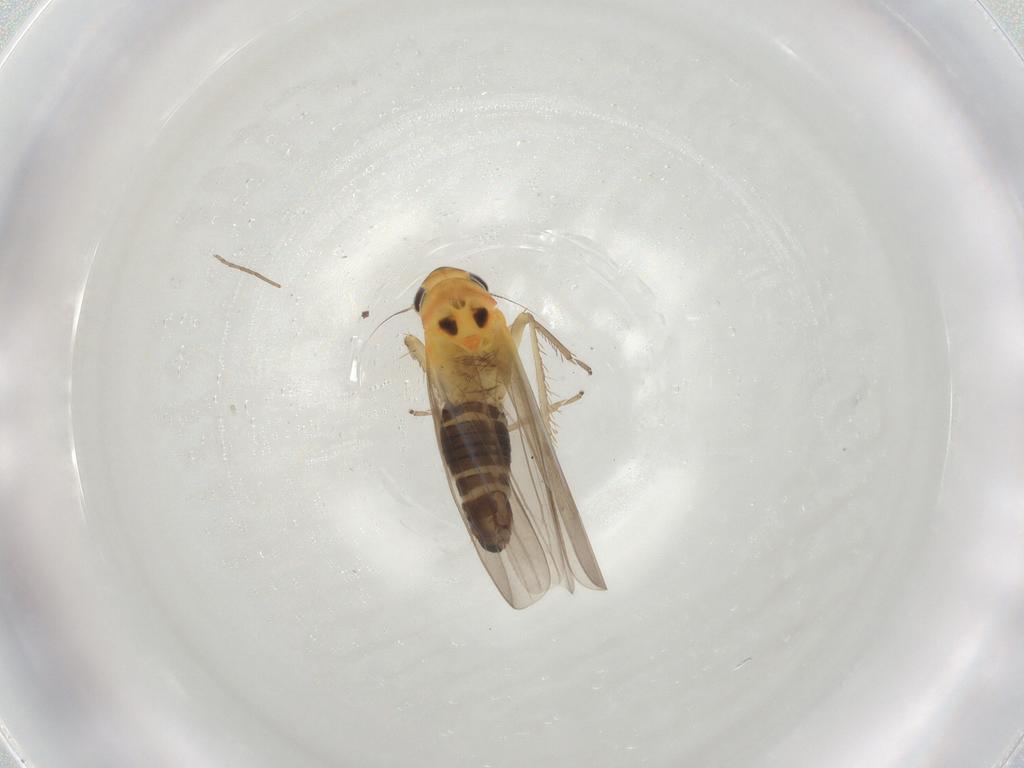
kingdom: Animalia
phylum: Arthropoda
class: Insecta
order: Hemiptera
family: Cicadellidae
